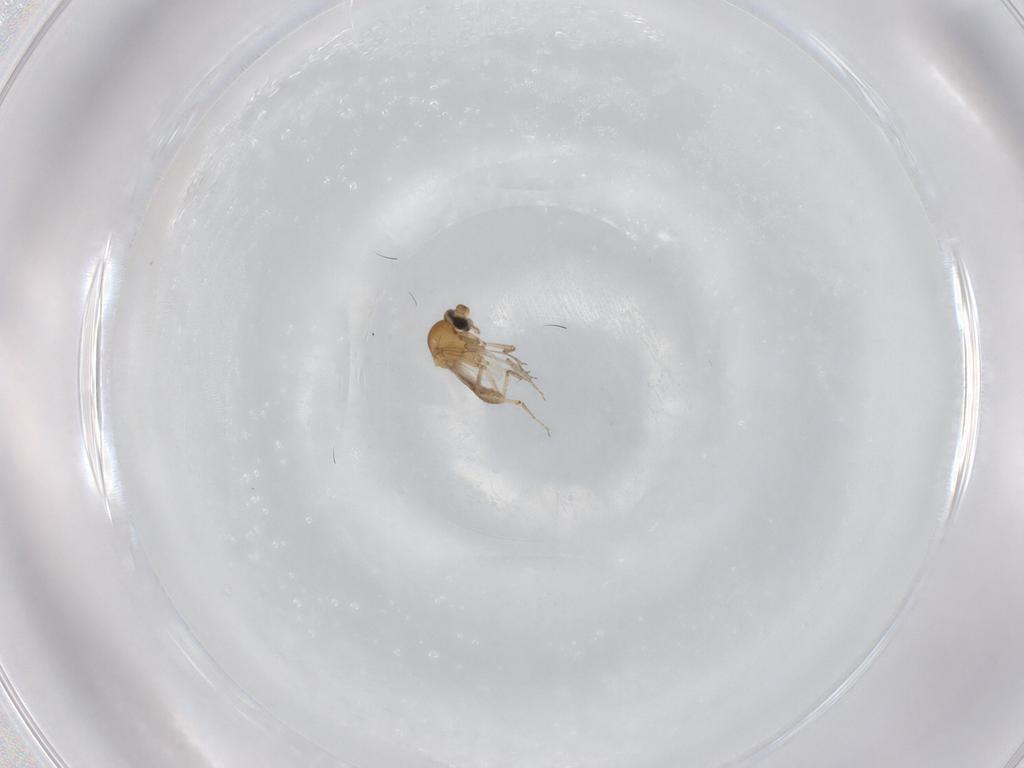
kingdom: Animalia
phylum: Arthropoda
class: Insecta
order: Diptera
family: Ceratopogonidae
